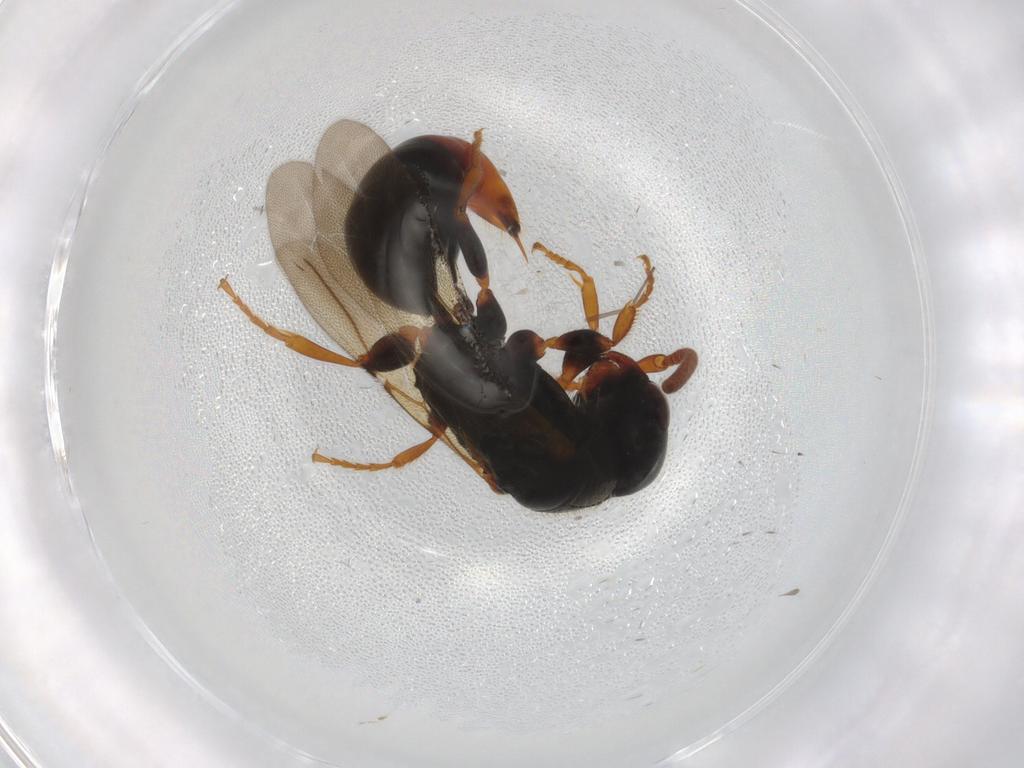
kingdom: Animalia
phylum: Arthropoda
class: Insecta
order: Hymenoptera
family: Bethylidae
